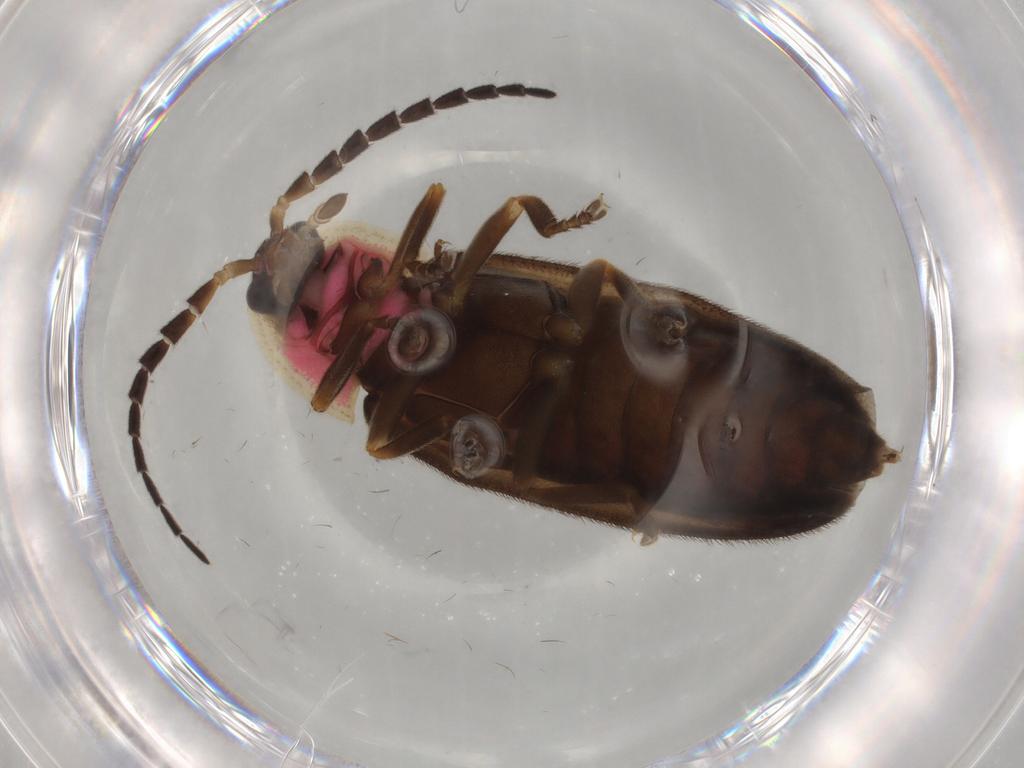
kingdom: Animalia
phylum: Arthropoda
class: Insecta
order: Coleoptera
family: Lampyridae
